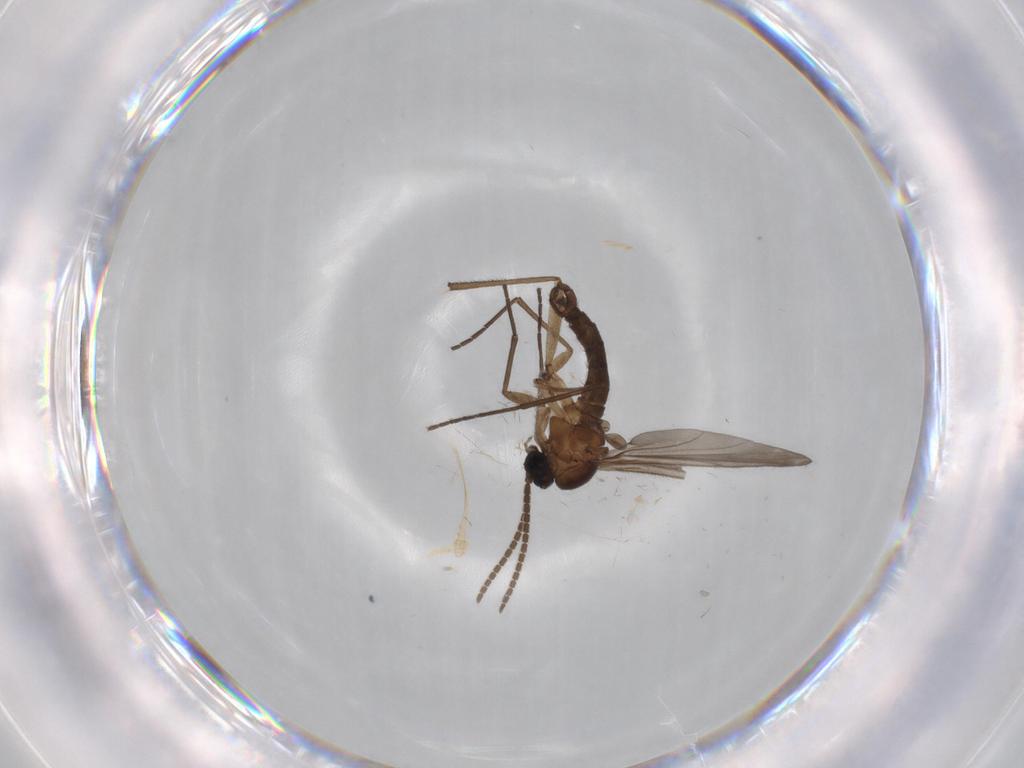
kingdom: Animalia
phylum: Arthropoda
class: Insecta
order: Diptera
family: Sciaridae
